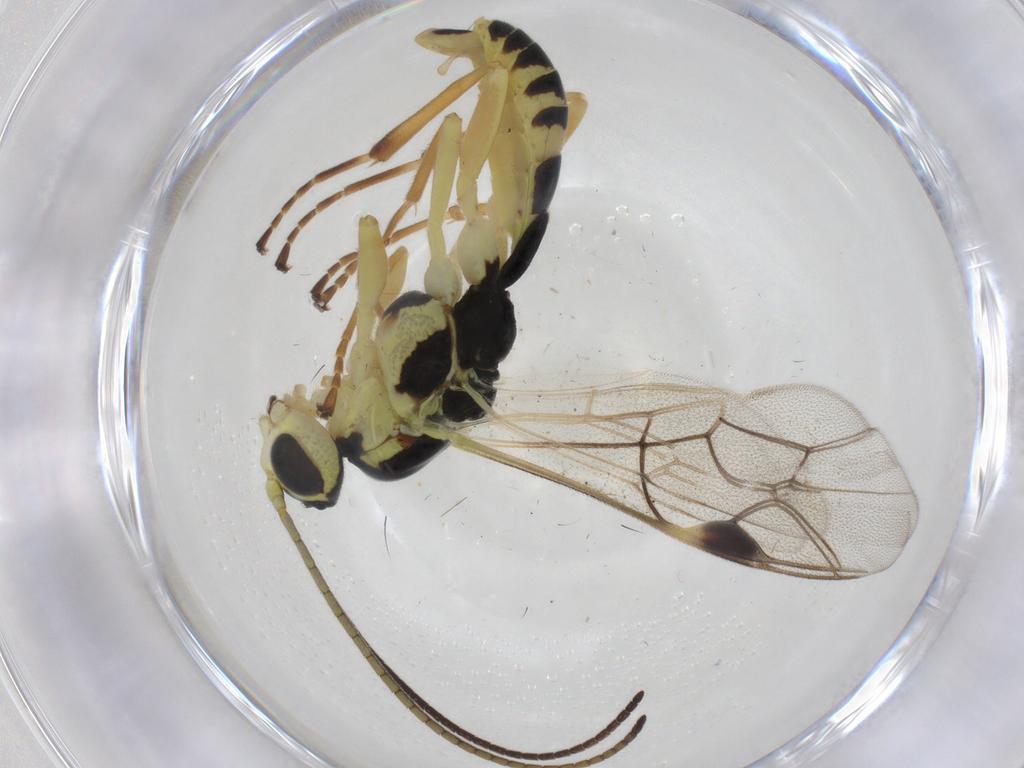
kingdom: Animalia
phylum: Arthropoda
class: Insecta
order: Hymenoptera
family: Ichneumonidae
